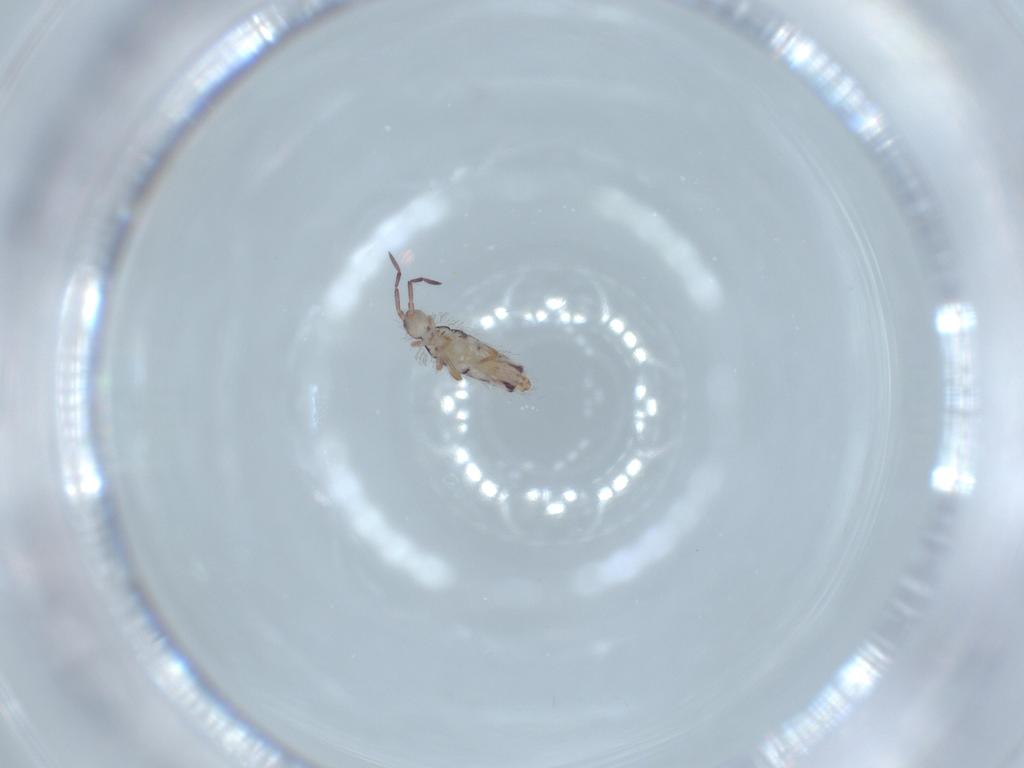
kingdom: Animalia
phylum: Arthropoda
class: Collembola
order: Entomobryomorpha
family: Entomobryidae
